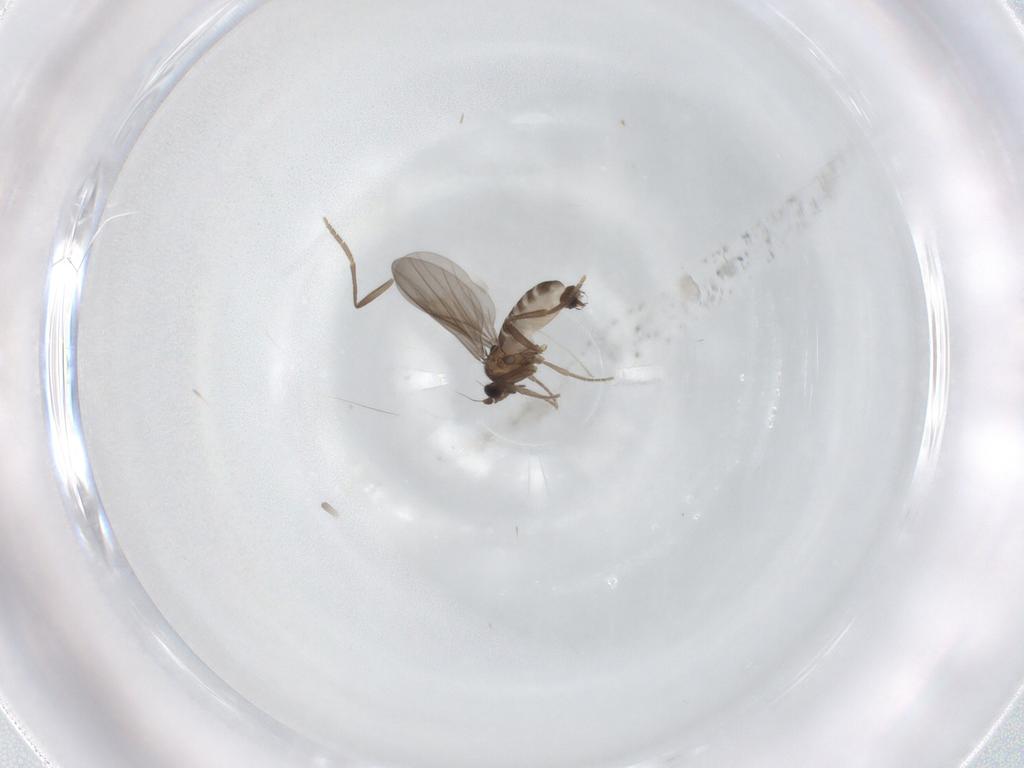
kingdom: Animalia
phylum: Arthropoda
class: Insecta
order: Diptera
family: Phoridae
